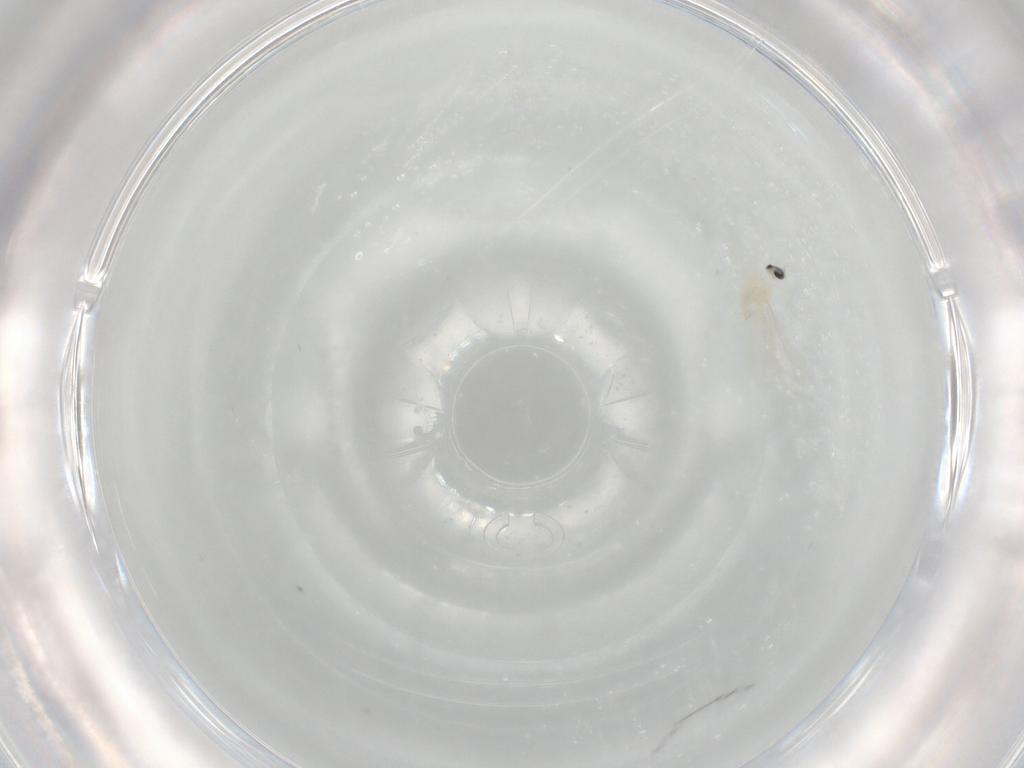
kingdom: Animalia
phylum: Arthropoda
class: Insecta
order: Diptera
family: Cecidomyiidae
